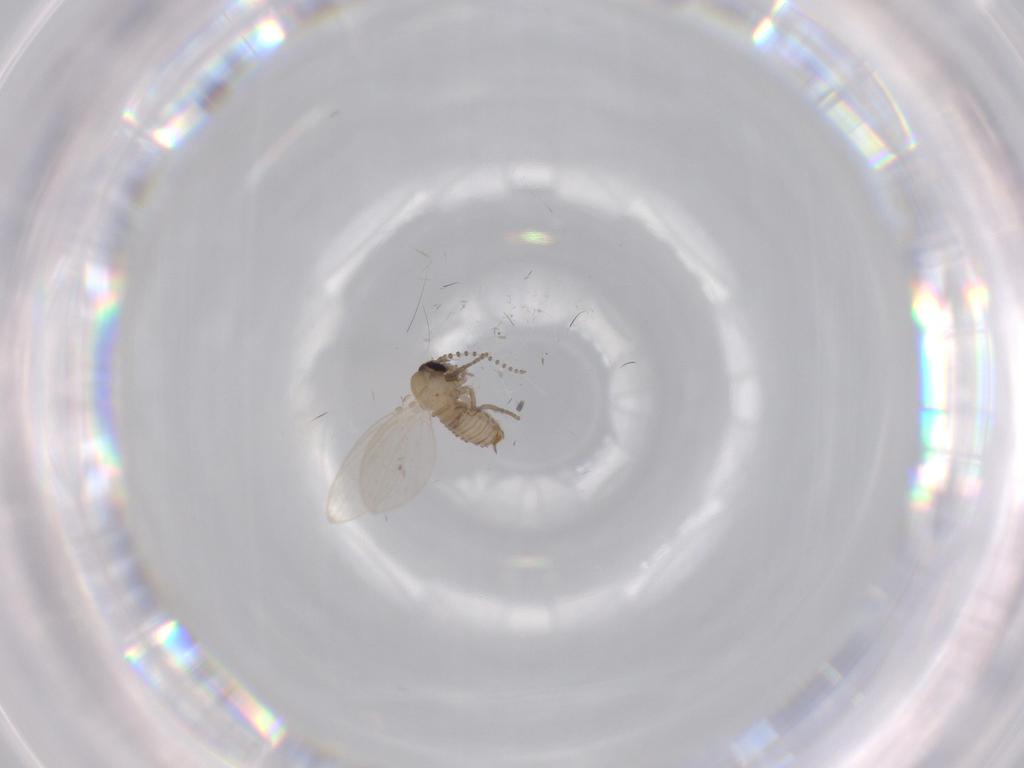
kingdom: Animalia
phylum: Arthropoda
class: Insecta
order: Diptera
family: Psychodidae
